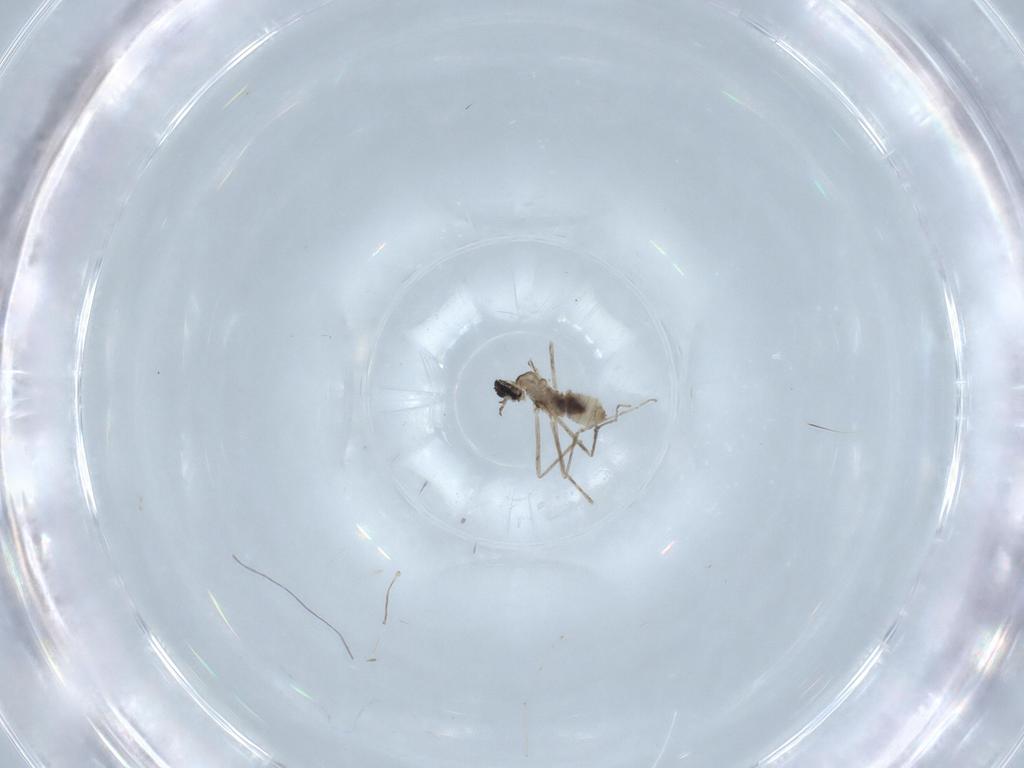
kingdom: Animalia
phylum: Arthropoda
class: Insecta
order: Diptera
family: Cecidomyiidae
